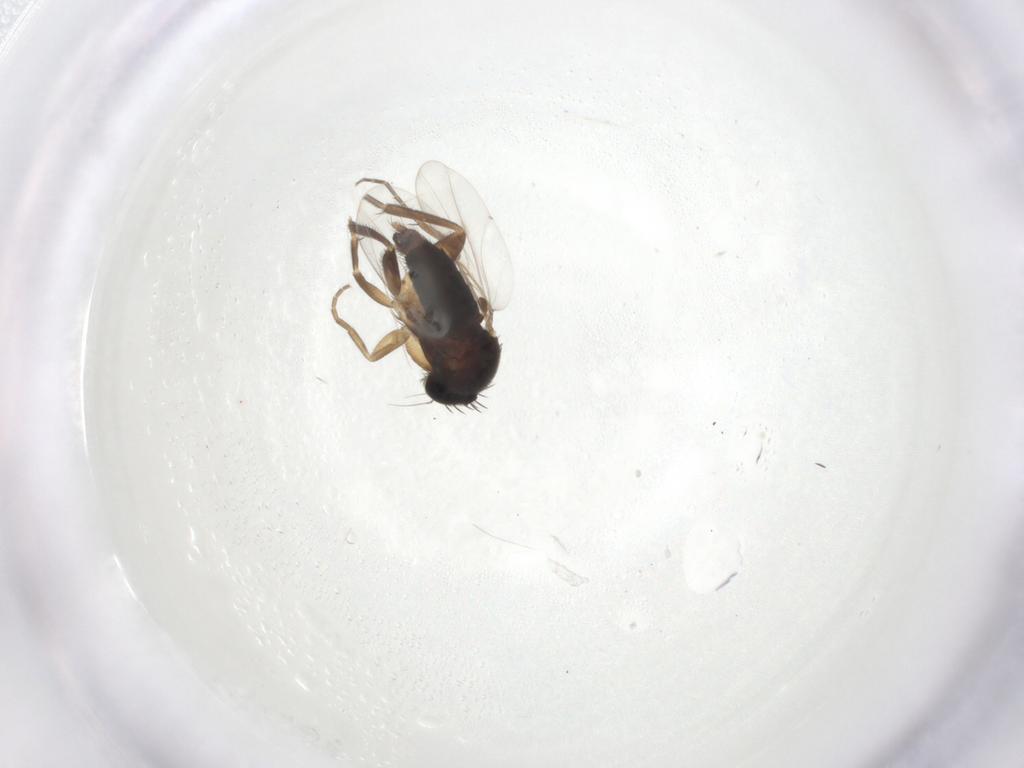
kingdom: Animalia
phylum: Arthropoda
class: Insecta
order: Diptera
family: Phoridae
